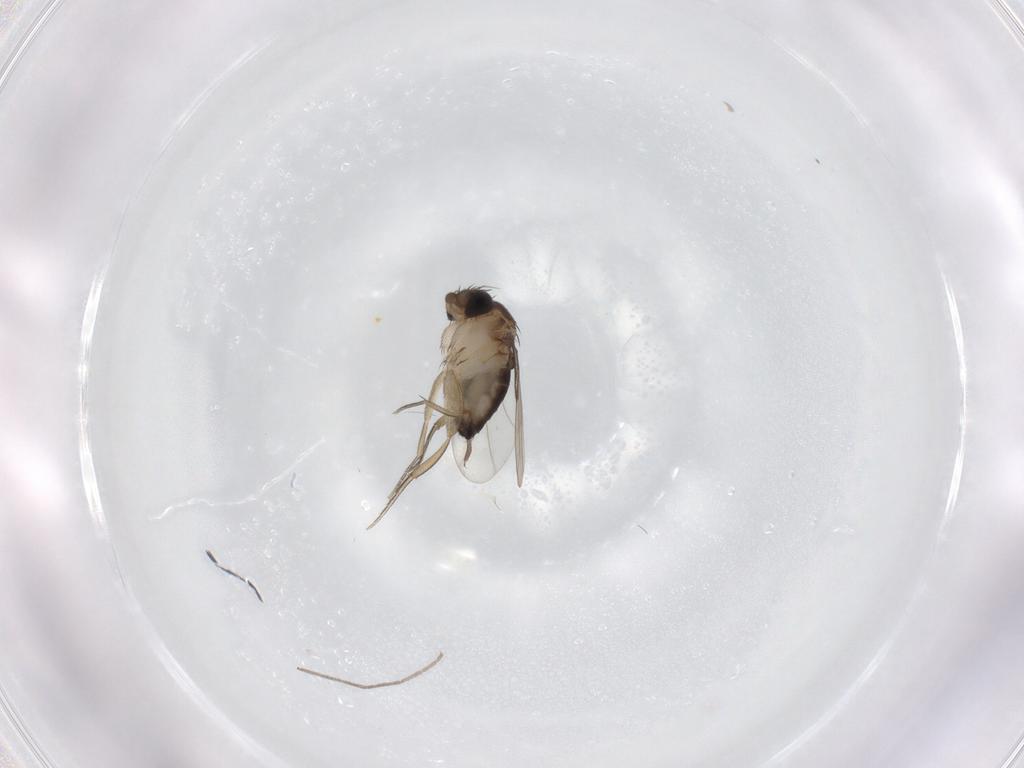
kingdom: Animalia
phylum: Arthropoda
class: Insecta
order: Diptera
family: Chironomidae
